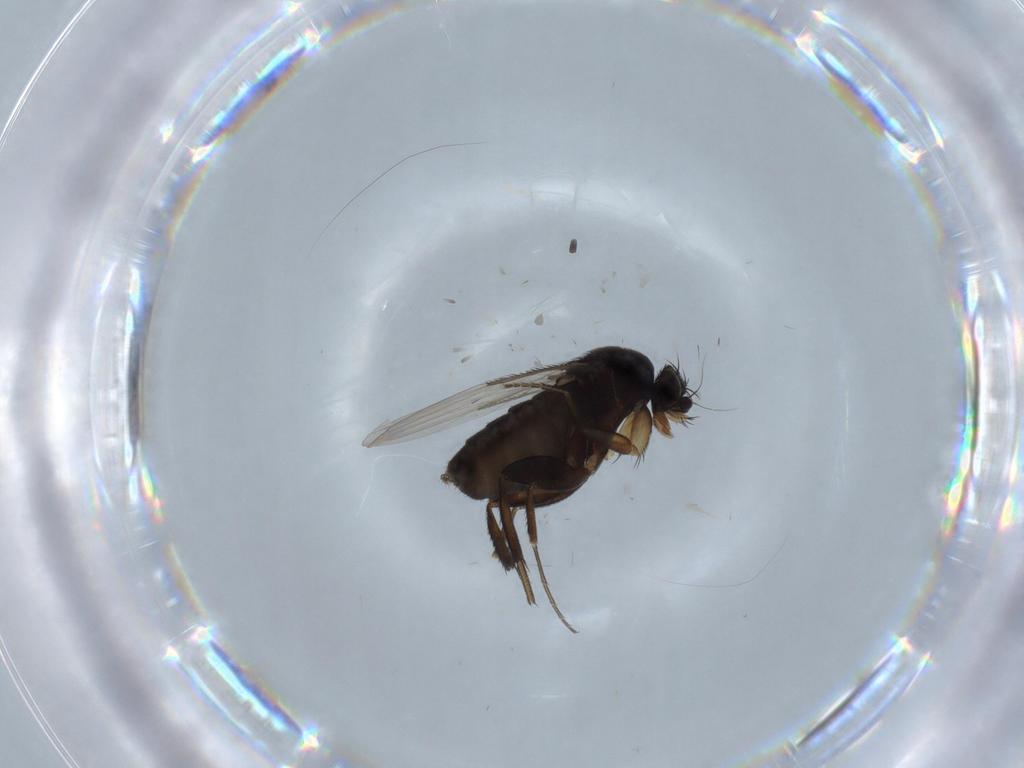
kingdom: Animalia
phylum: Arthropoda
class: Insecta
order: Diptera
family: Phoridae
